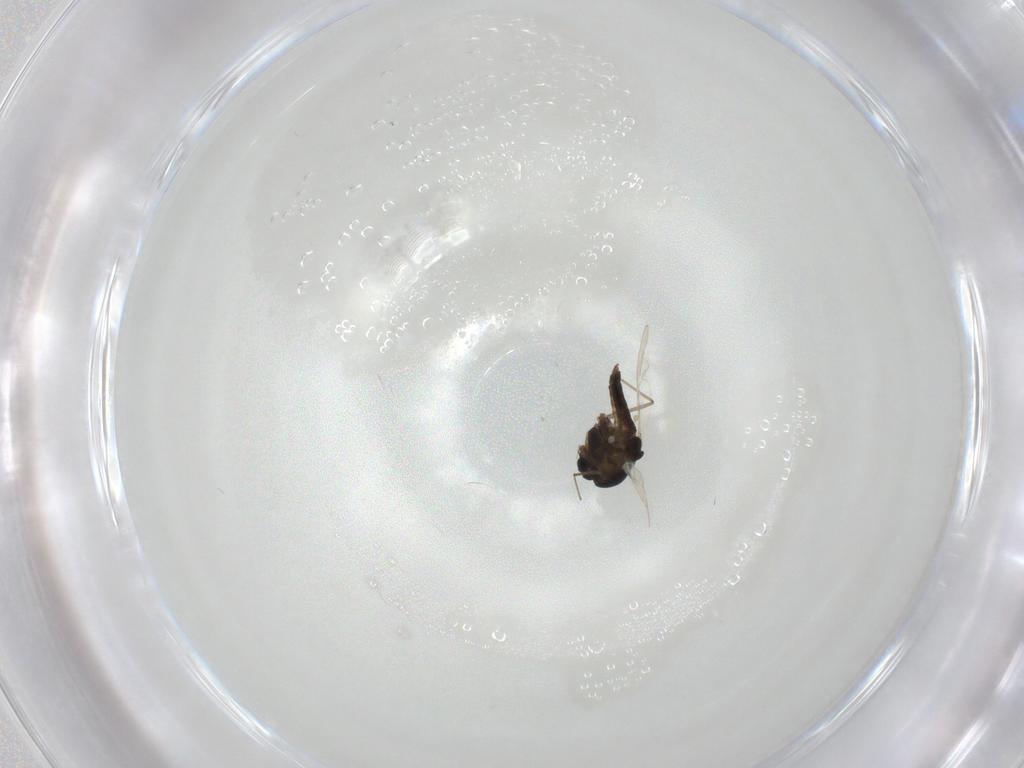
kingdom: Animalia
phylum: Arthropoda
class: Insecta
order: Diptera
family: Chironomidae
